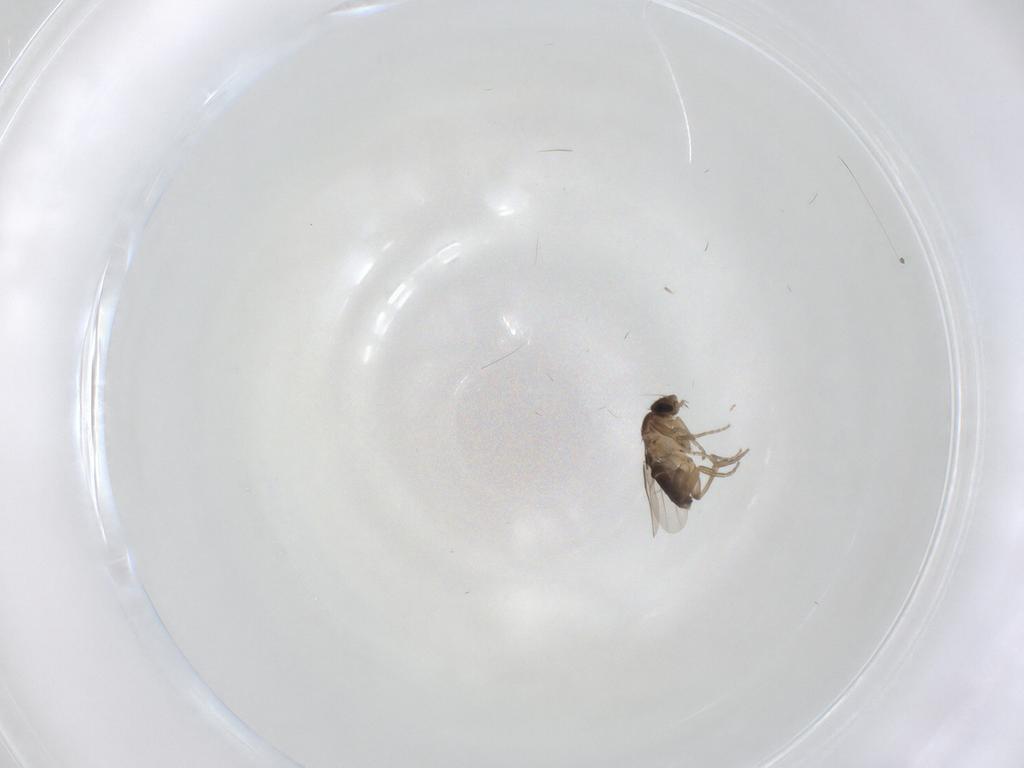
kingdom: Animalia
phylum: Arthropoda
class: Insecta
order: Diptera
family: Phoridae
